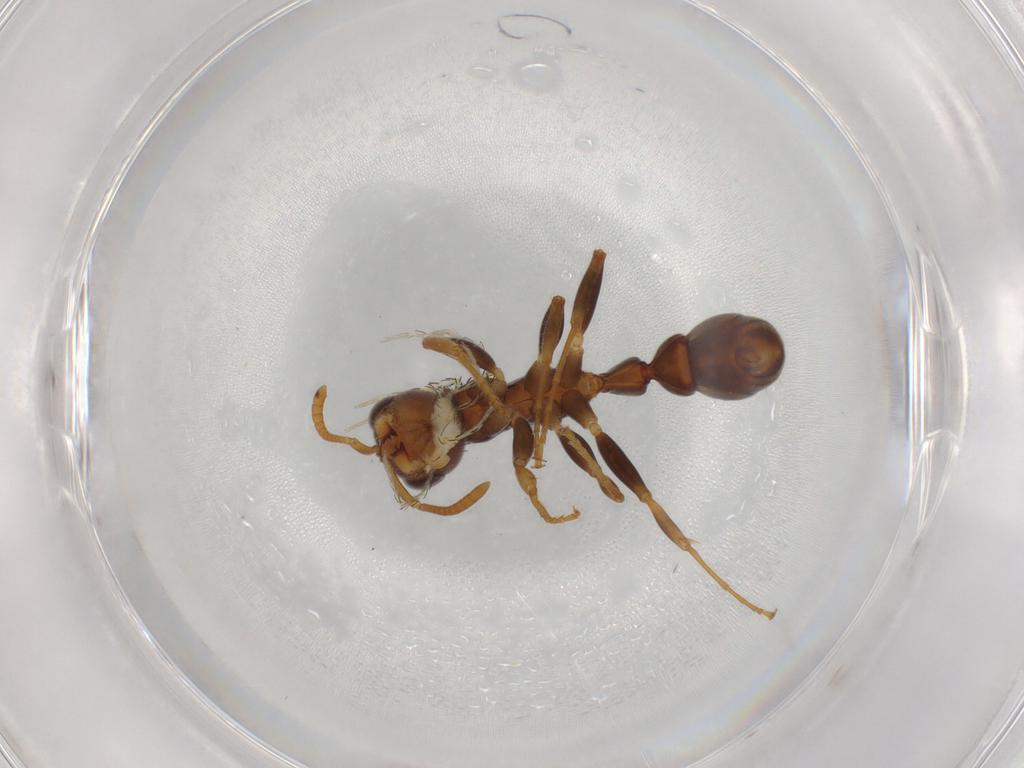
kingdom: Animalia
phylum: Arthropoda
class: Insecta
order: Hymenoptera
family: Formicidae
